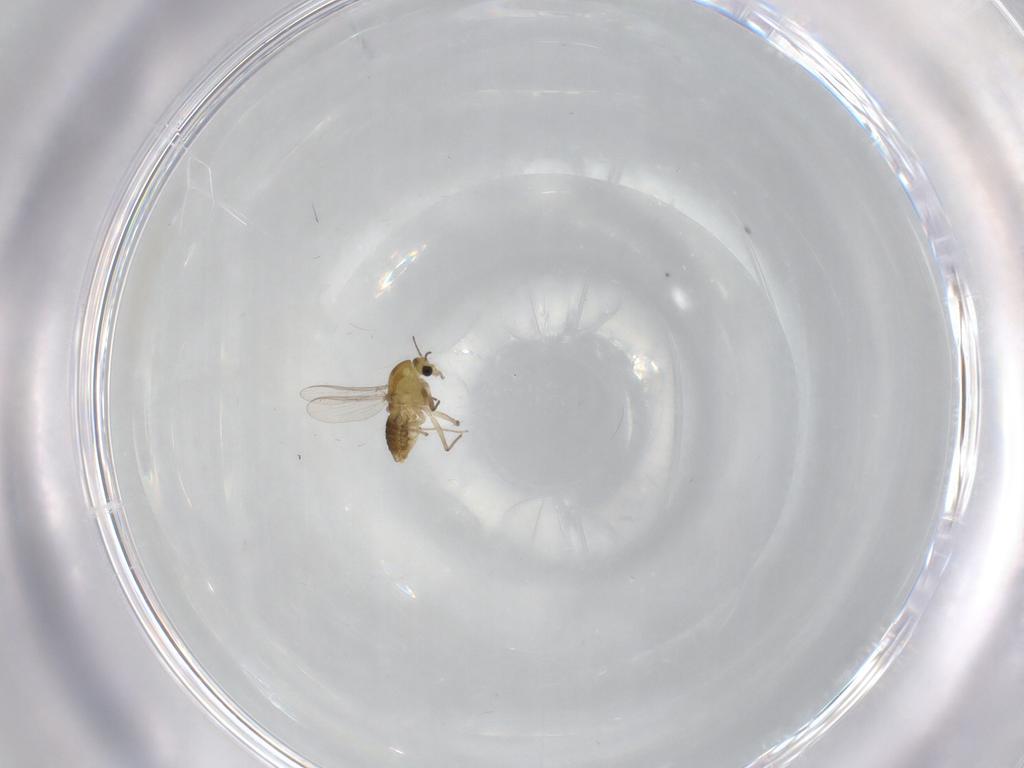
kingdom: Animalia
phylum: Arthropoda
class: Insecta
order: Diptera
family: Chironomidae
